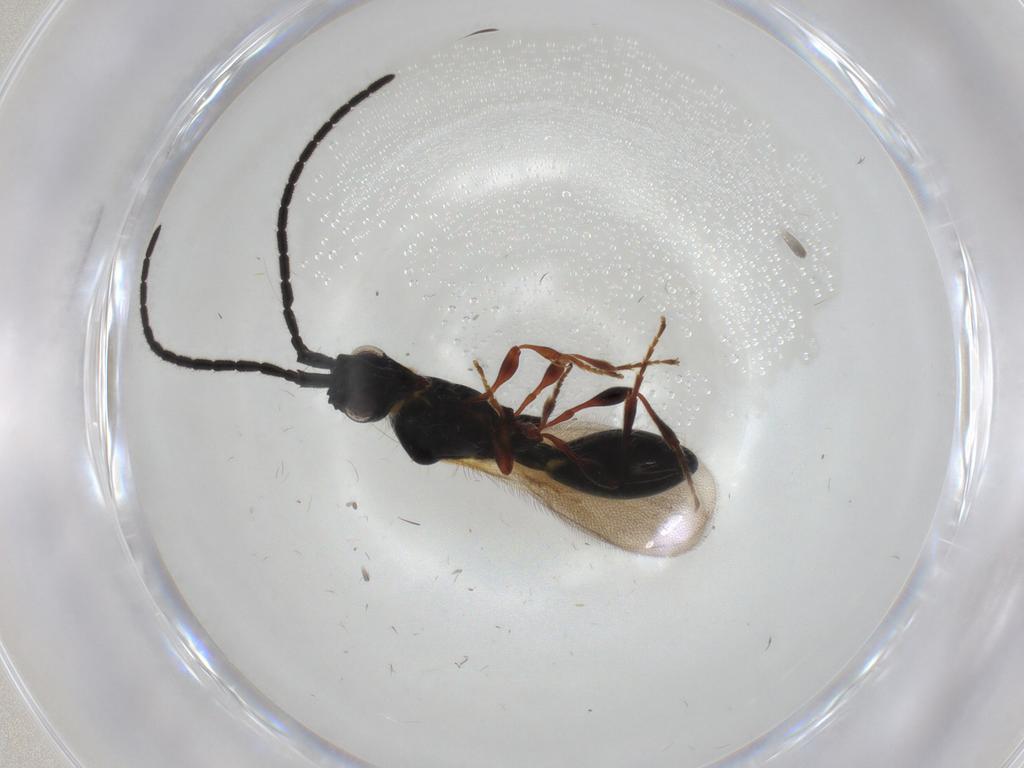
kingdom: Animalia
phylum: Arthropoda
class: Insecta
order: Hymenoptera
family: Diapriidae
